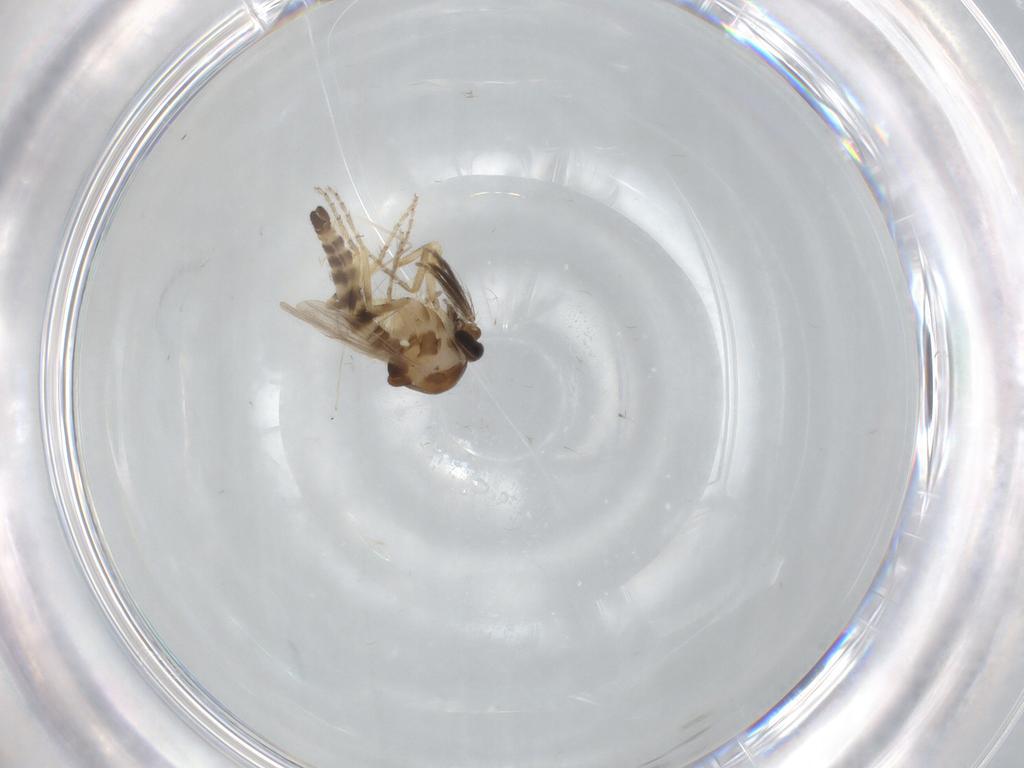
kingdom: Animalia
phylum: Arthropoda
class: Insecta
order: Diptera
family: Ceratopogonidae
